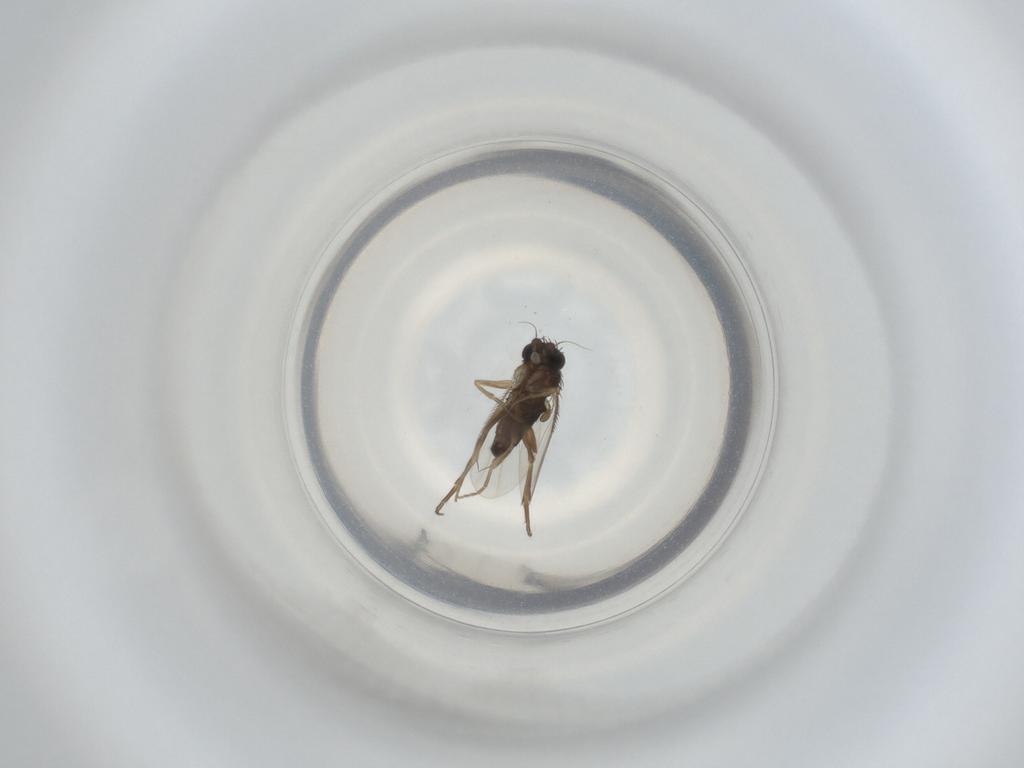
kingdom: Animalia
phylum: Arthropoda
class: Insecta
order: Diptera
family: Phoridae
